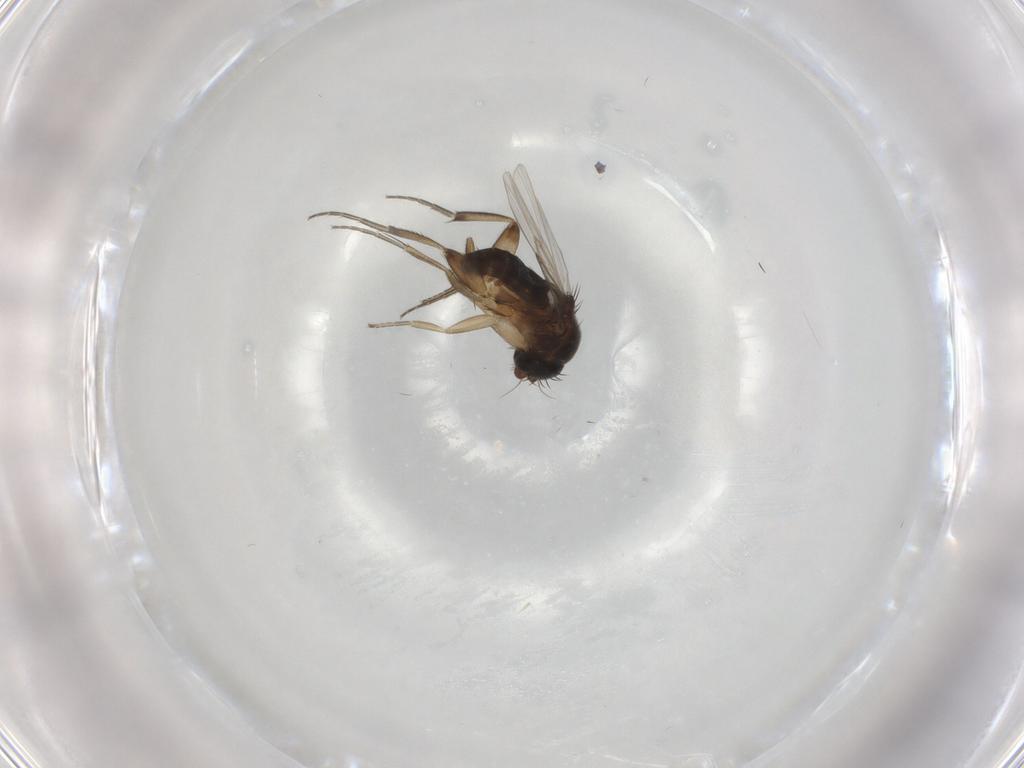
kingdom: Animalia
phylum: Arthropoda
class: Insecta
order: Diptera
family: Phoridae
